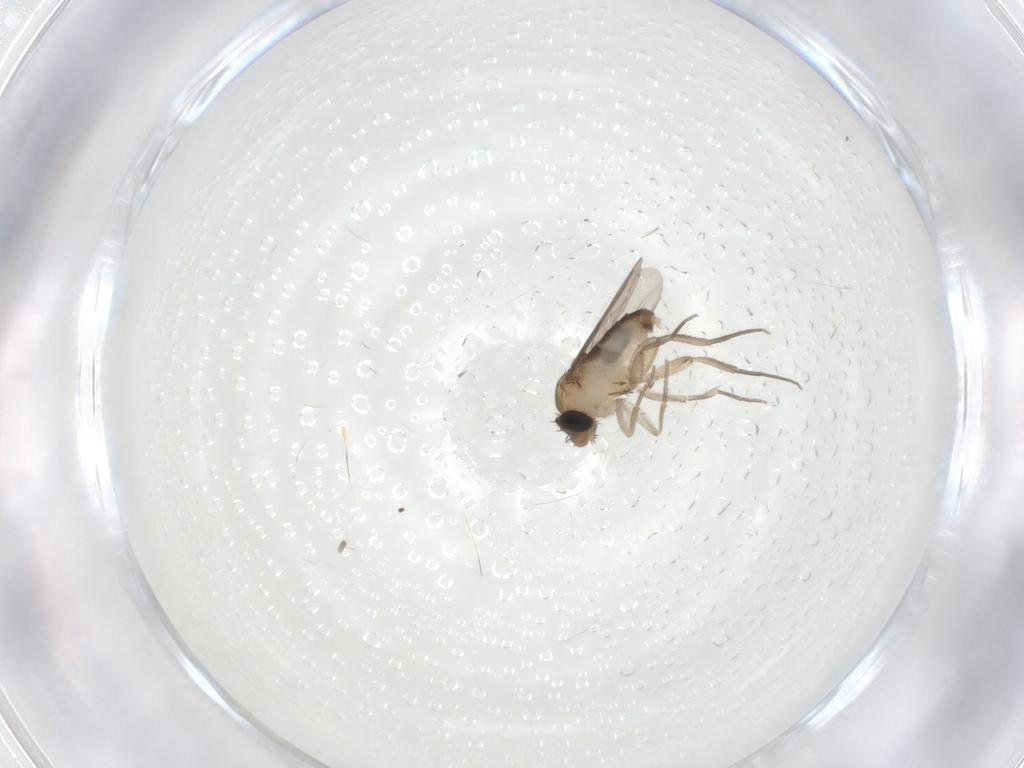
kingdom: Animalia
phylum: Arthropoda
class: Insecta
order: Diptera
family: Phoridae
